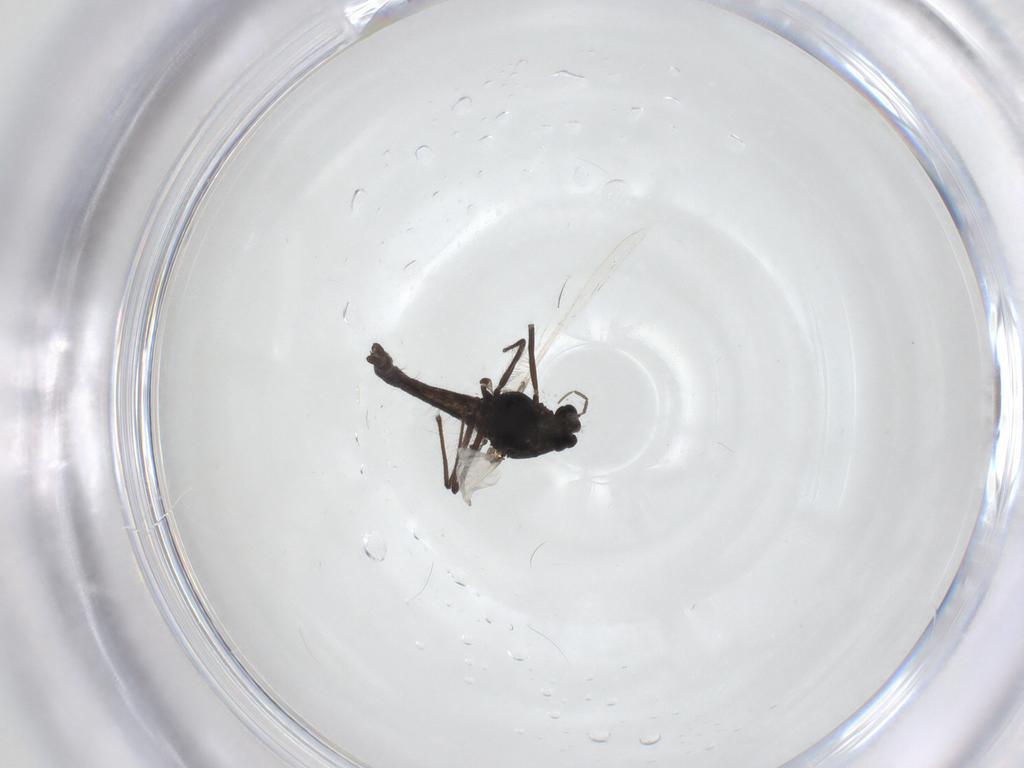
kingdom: Animalia
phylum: Arthropoda
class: Insecta
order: Diptera
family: Chironomidae
